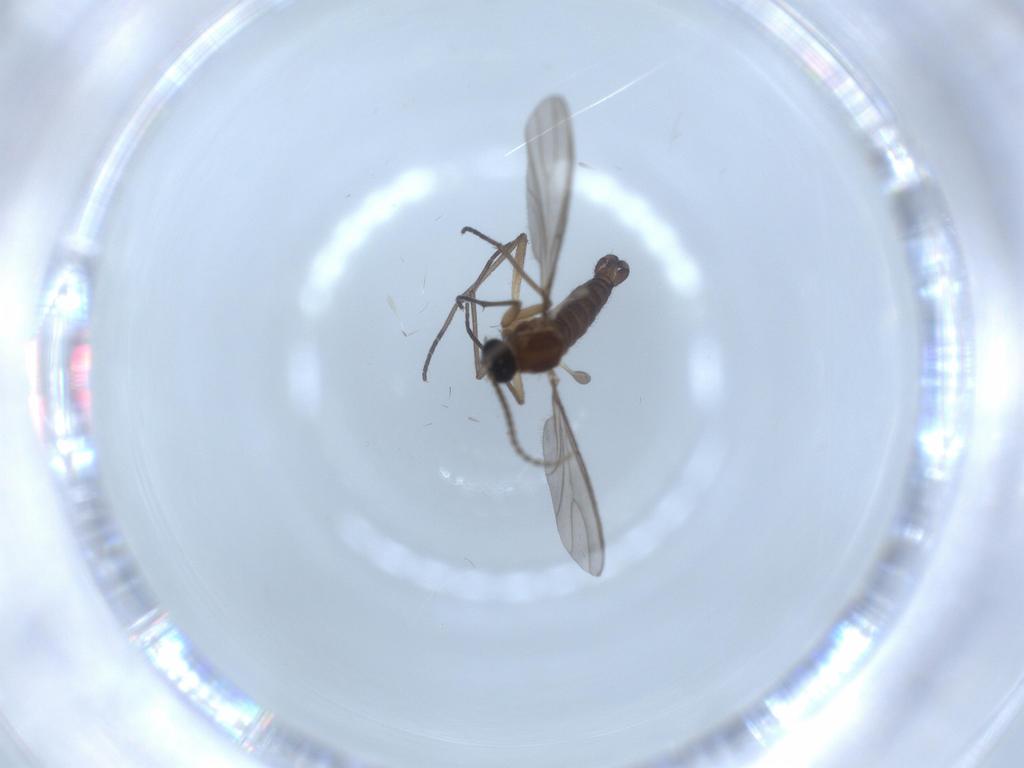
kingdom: Animalia
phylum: Arthropoda
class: Insecta
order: Diptera
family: Sciaridae
